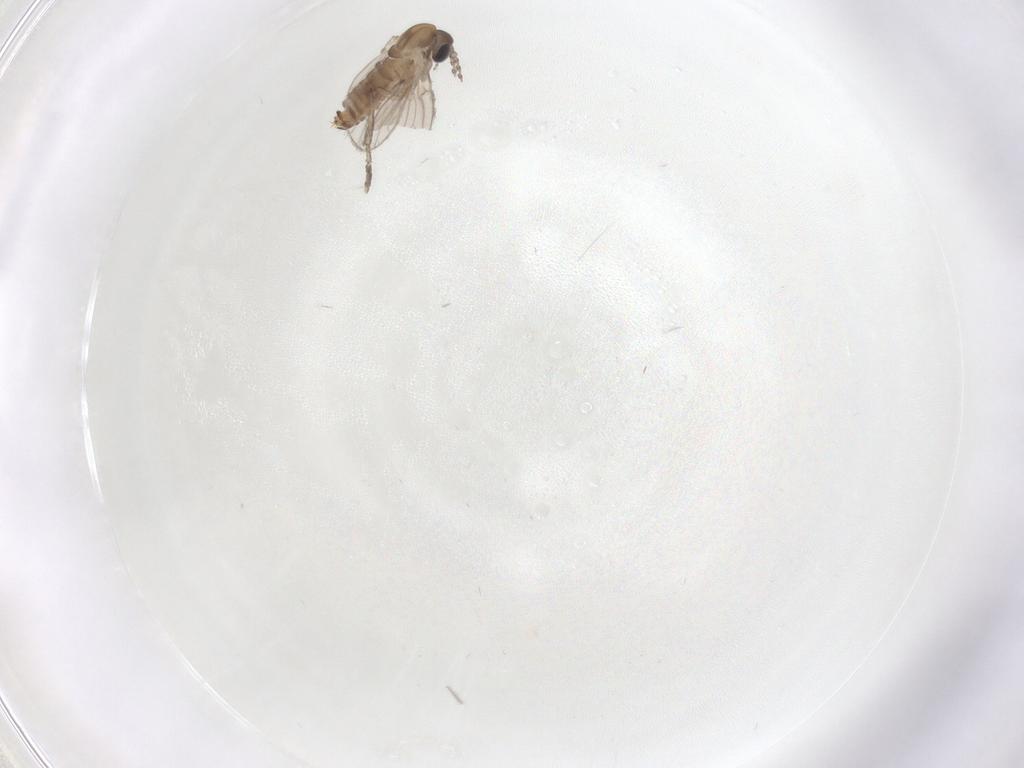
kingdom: Animalia
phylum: Arthropoda
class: Insecta
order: Diptera
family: Psychodidae
